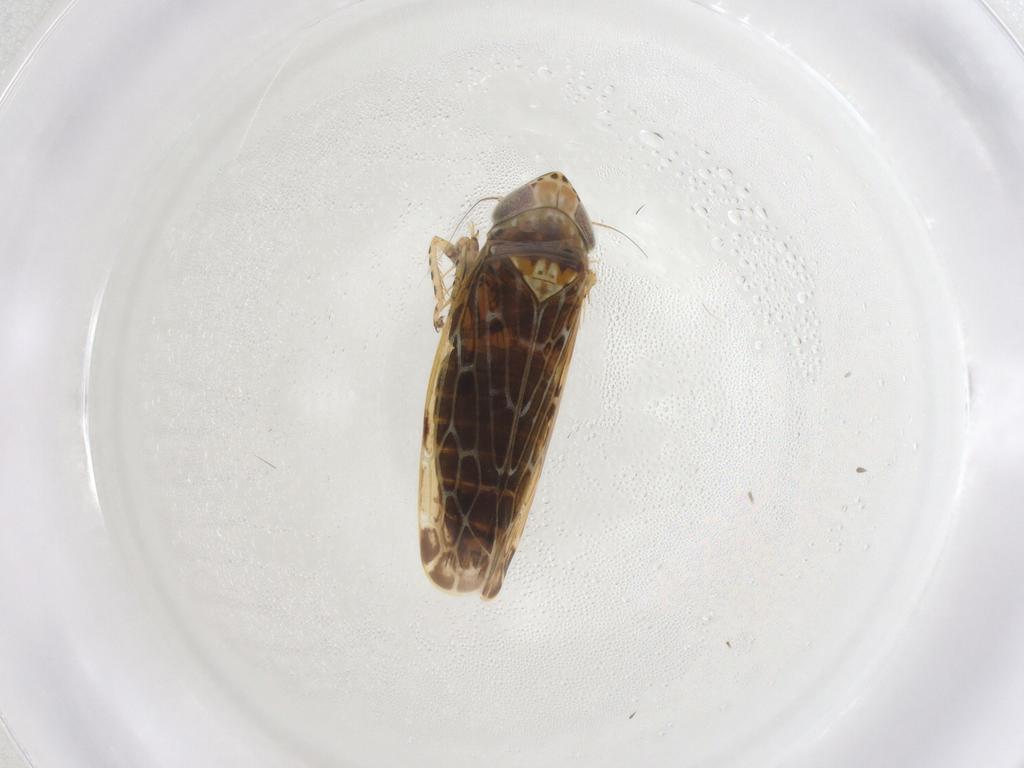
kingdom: Animalia
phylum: Arthropoda
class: Insecta
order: Hemiptera
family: Cicadellidae
